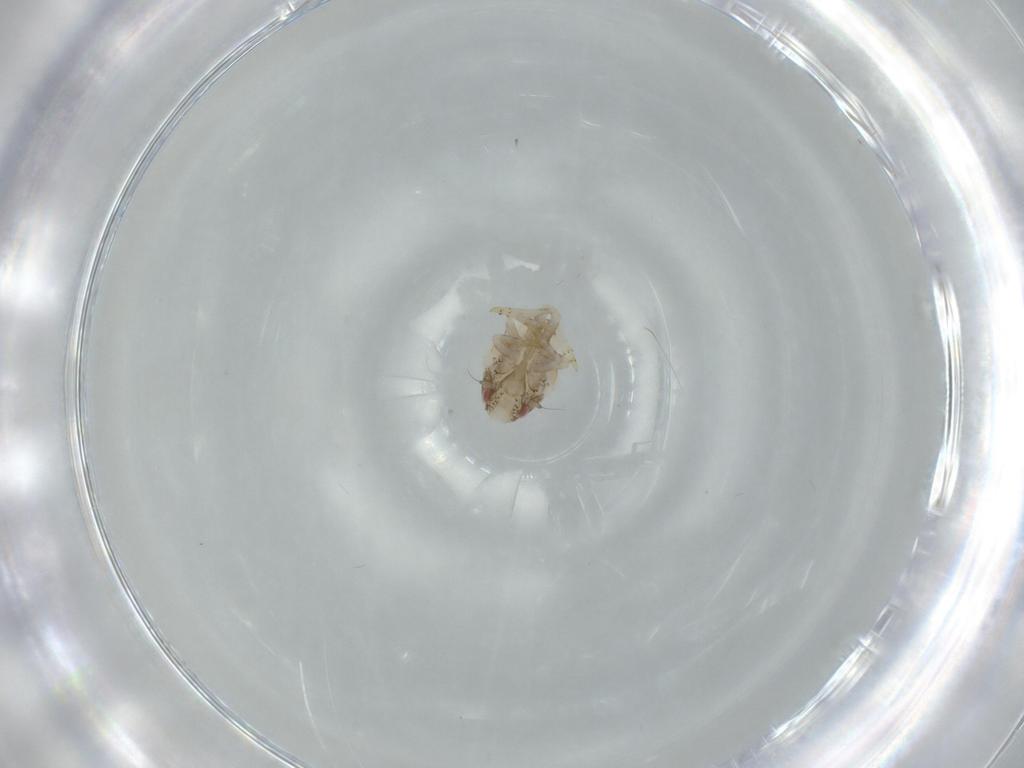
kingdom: Animalia
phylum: Arthropoda
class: Insecta
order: Hemiptera
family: Acanaloniidae
